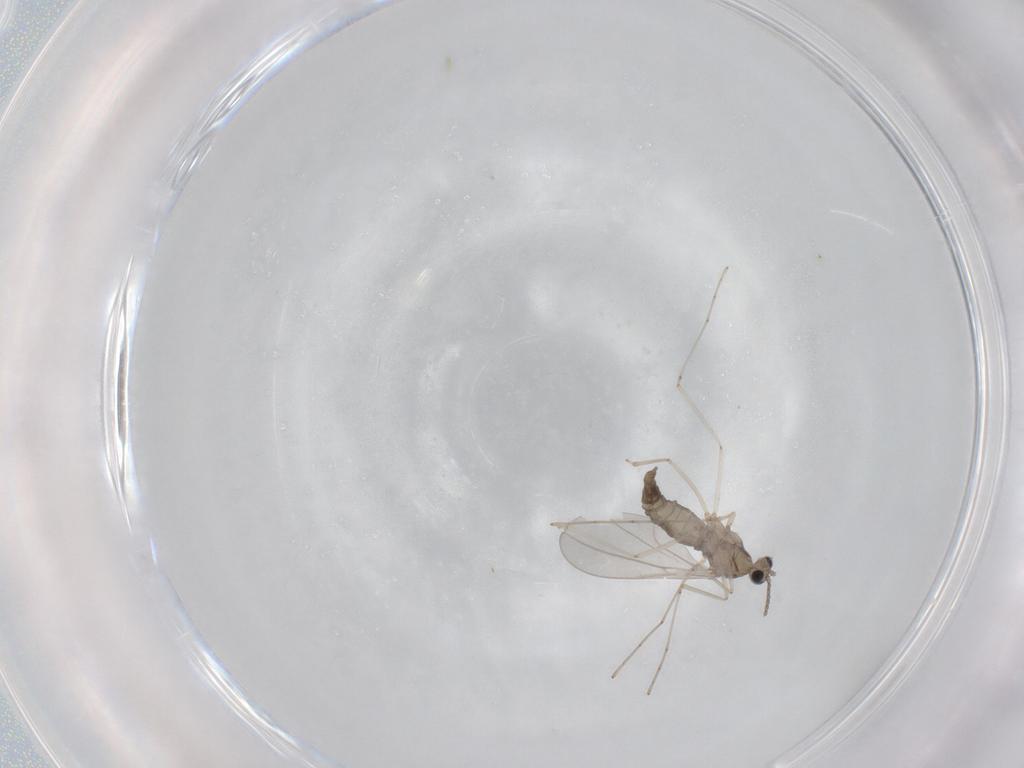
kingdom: Animalia
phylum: Arthropoda
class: Insecta
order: Diptera
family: Cecidomyiidae
